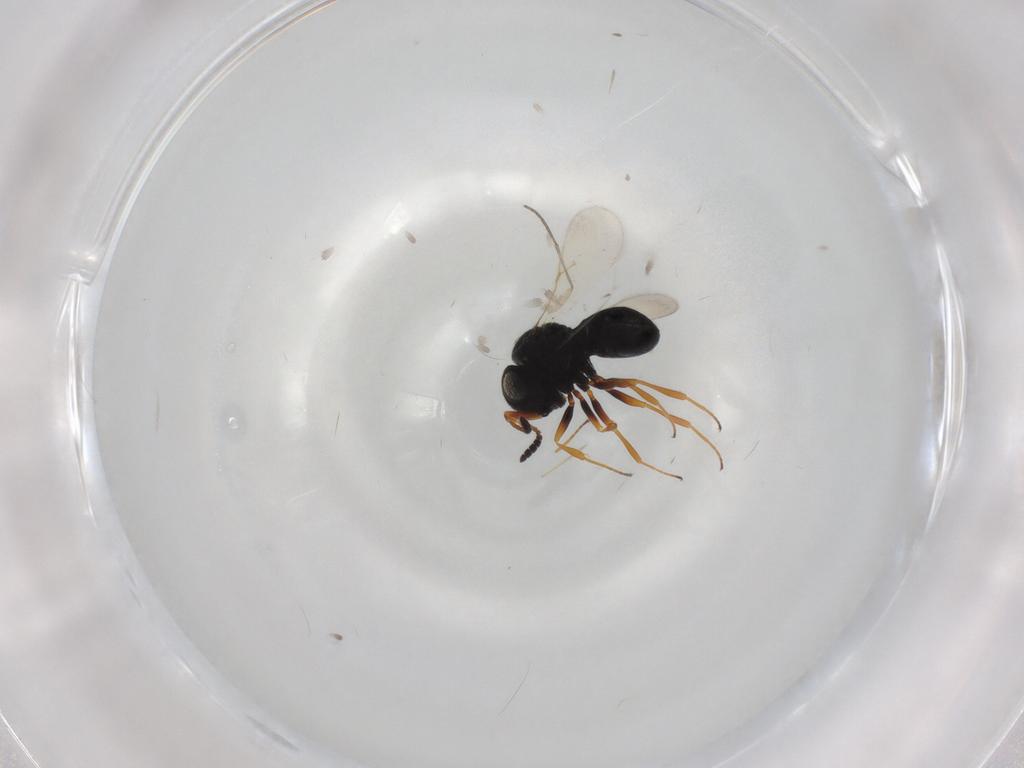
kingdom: Animalia
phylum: Arthropoda
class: Insecta
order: Hymenoptera
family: Scelionidae
